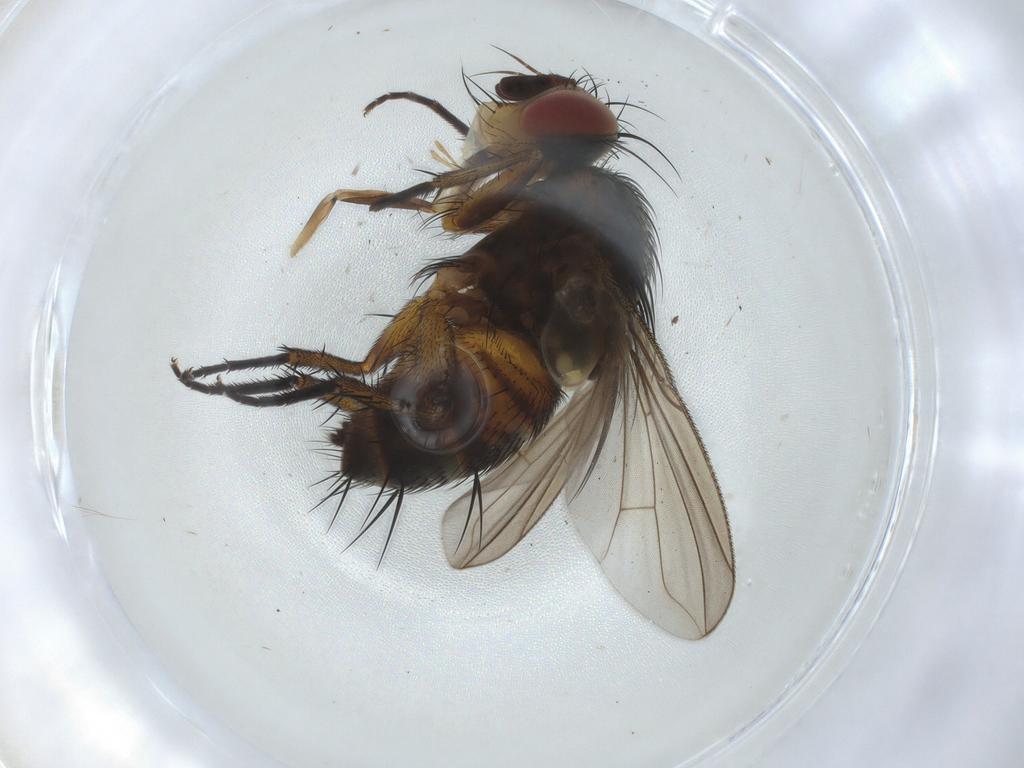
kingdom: Animalia
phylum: Arthropoda
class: Insecta
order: Diptera
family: Tachinidae
